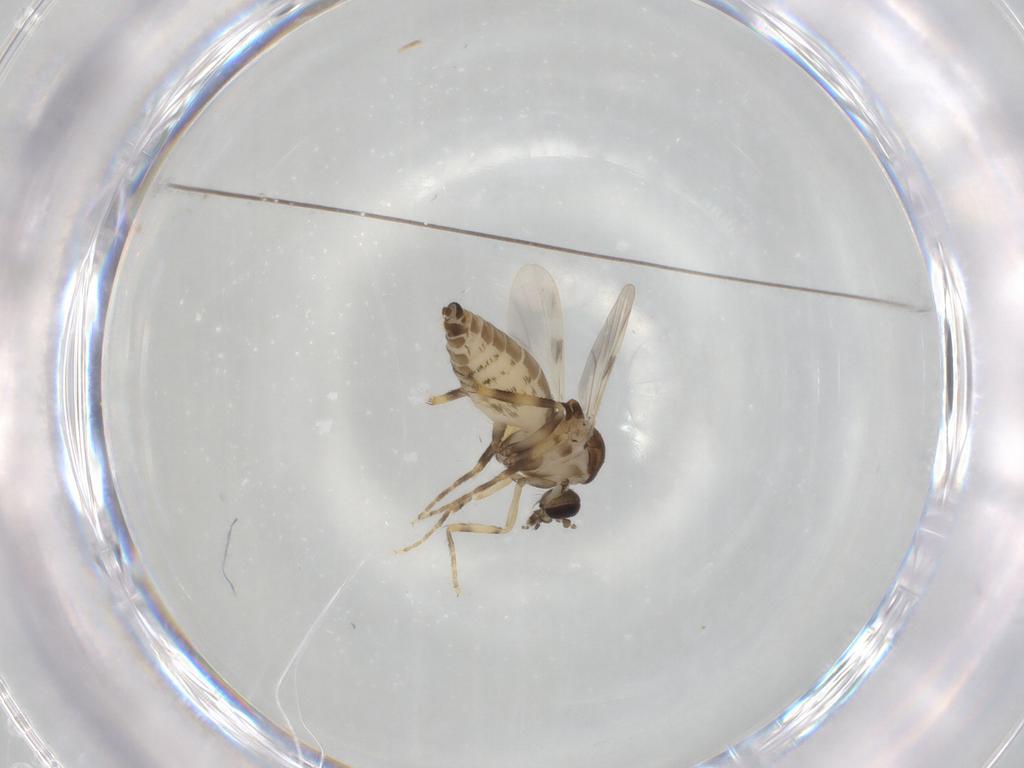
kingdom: Animalia
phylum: Arthropoda
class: Insecta
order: Diptera
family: Ceratopogonidae
